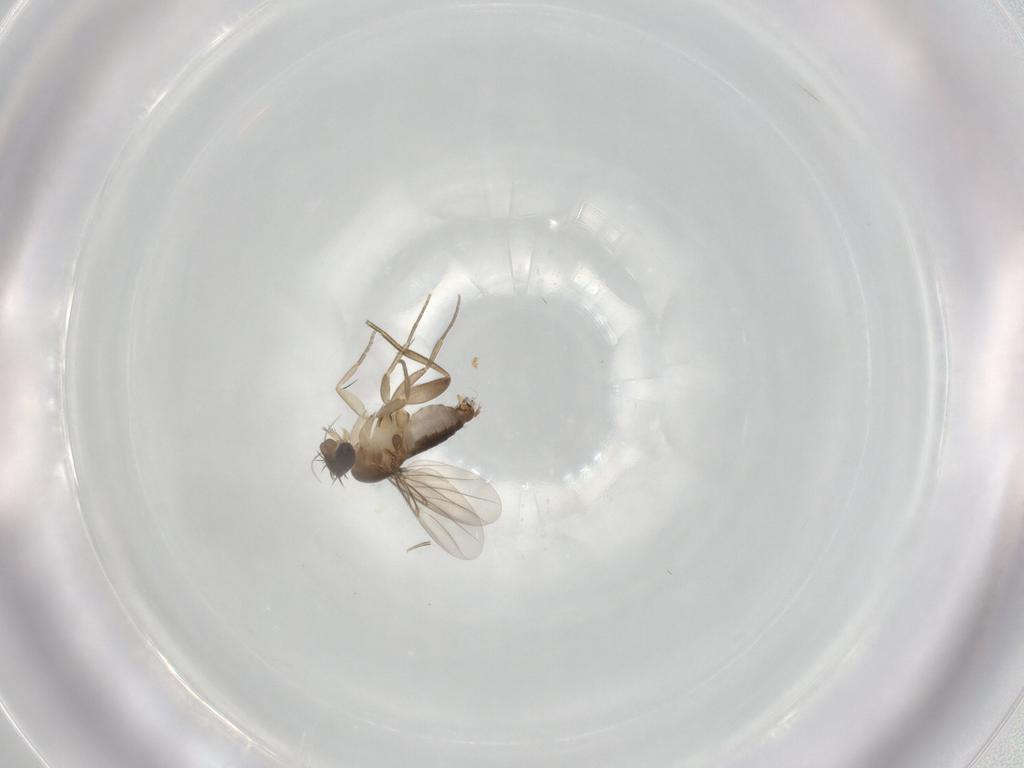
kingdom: Animalia
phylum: Arthropoda
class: Insecta
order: Diptera
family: Phoridae
